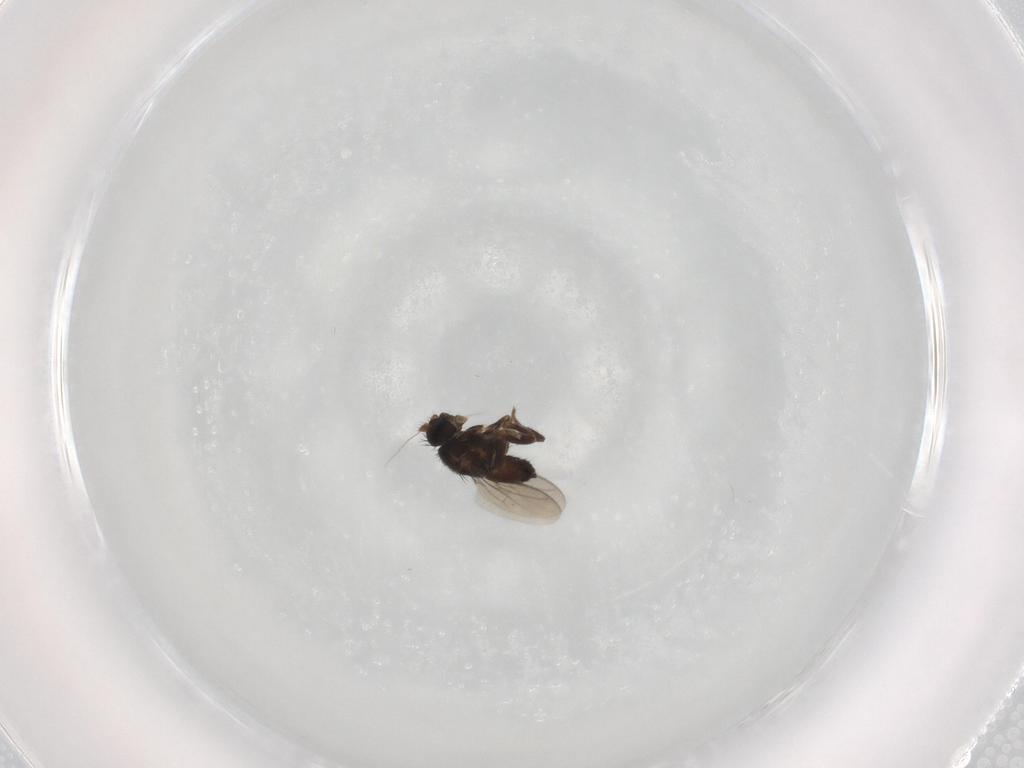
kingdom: Animalia
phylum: Arthropoda
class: Insecta
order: Diptera
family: Sphaeroceridae
